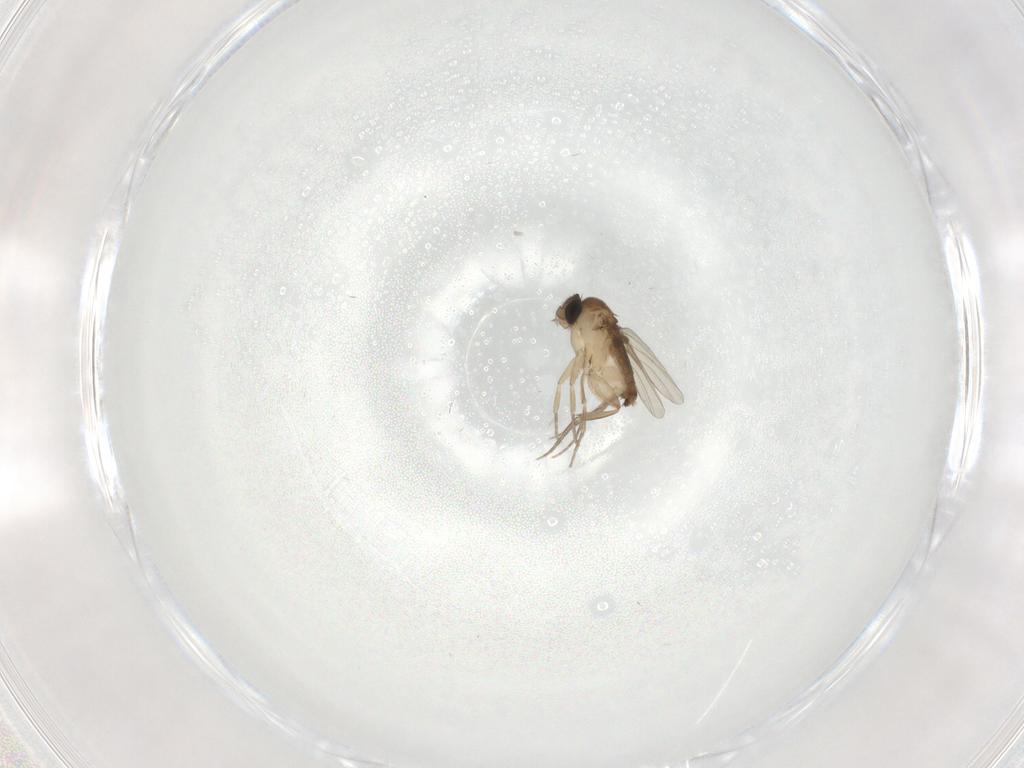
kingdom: Animalia
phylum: Arthropoda
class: Insecta
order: Diptera
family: Phoridae
